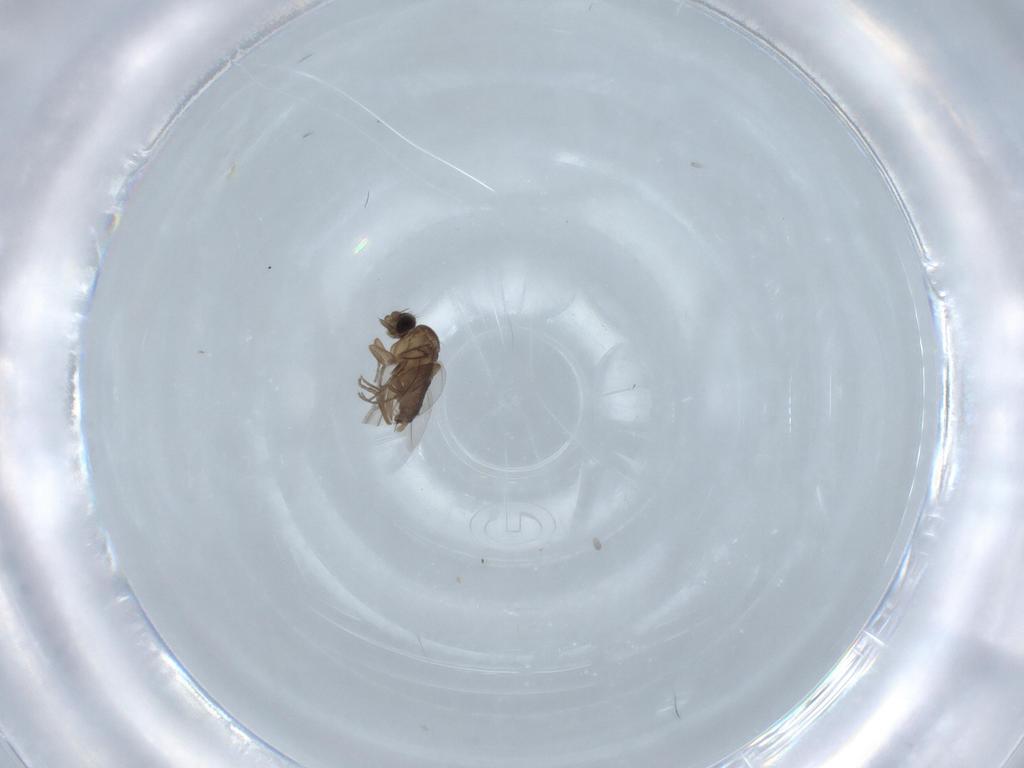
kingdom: Animalia
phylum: Arthropoda
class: Insecta
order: Diptera
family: Phoridae
